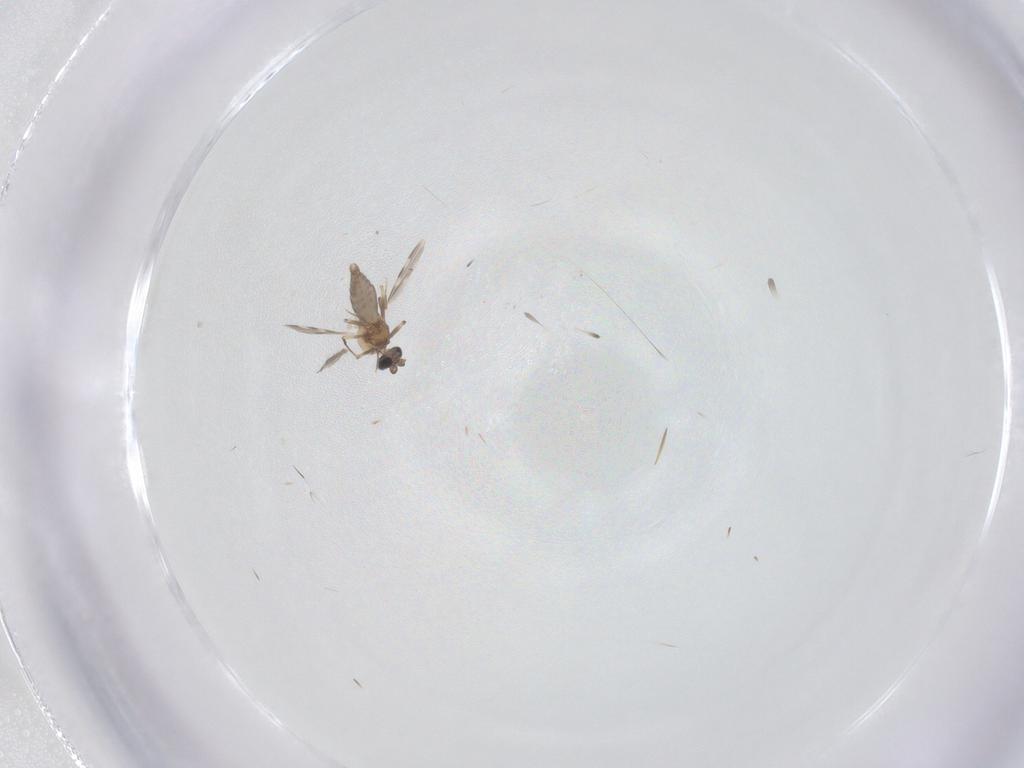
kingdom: Animalia
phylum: Arthropoda
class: Insecta
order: Diptera
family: Ceratopogonidae
